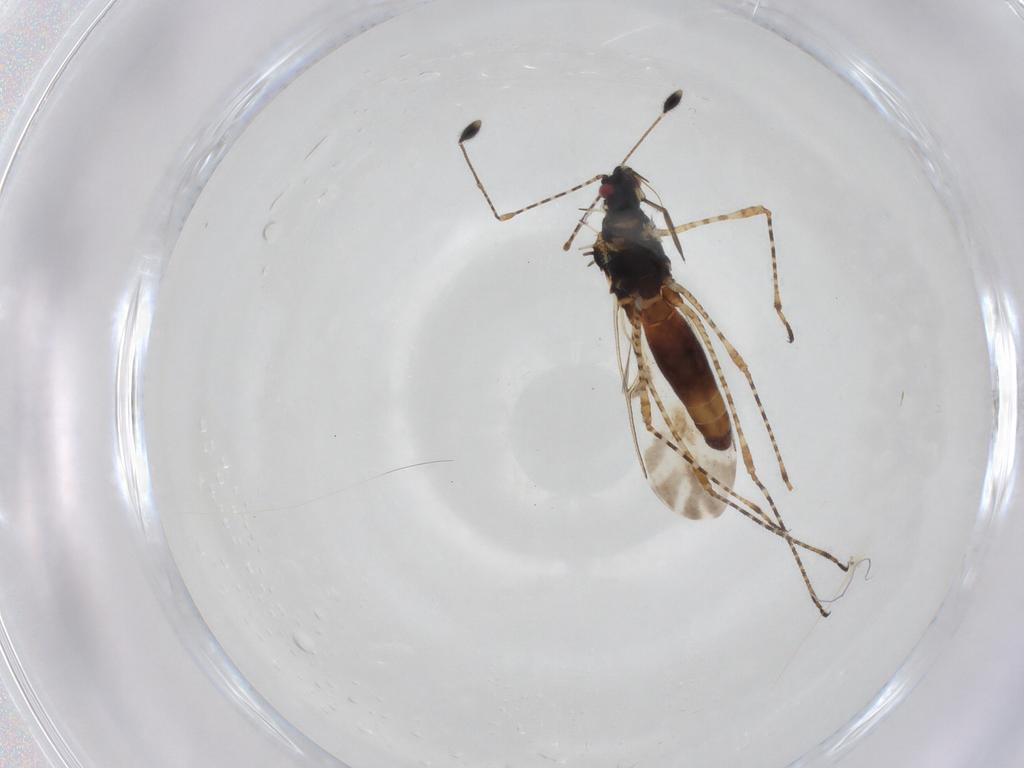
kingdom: Animalia
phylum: Arthropoda
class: Insecta
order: Hemiptera
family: Berytidae
